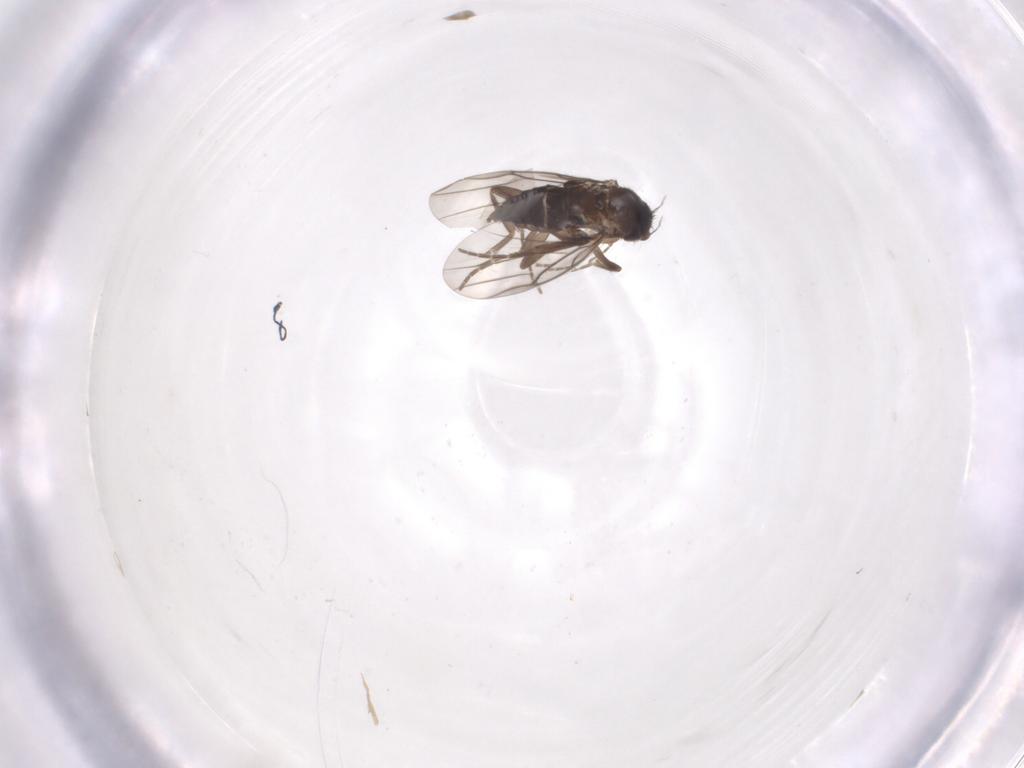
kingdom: Animalia
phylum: Arthropoda
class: Insecta
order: Diptera
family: Phoridae
